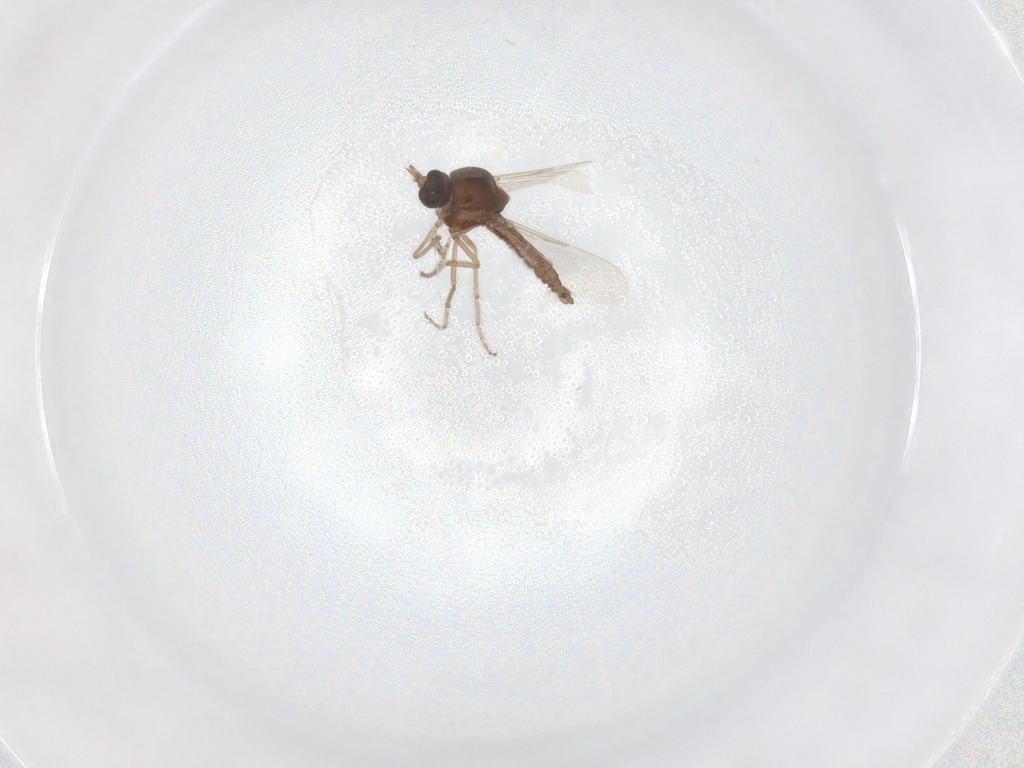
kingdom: Animalia
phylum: Arthropoda
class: Insecta
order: Diptera
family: Ceratopogonidae
